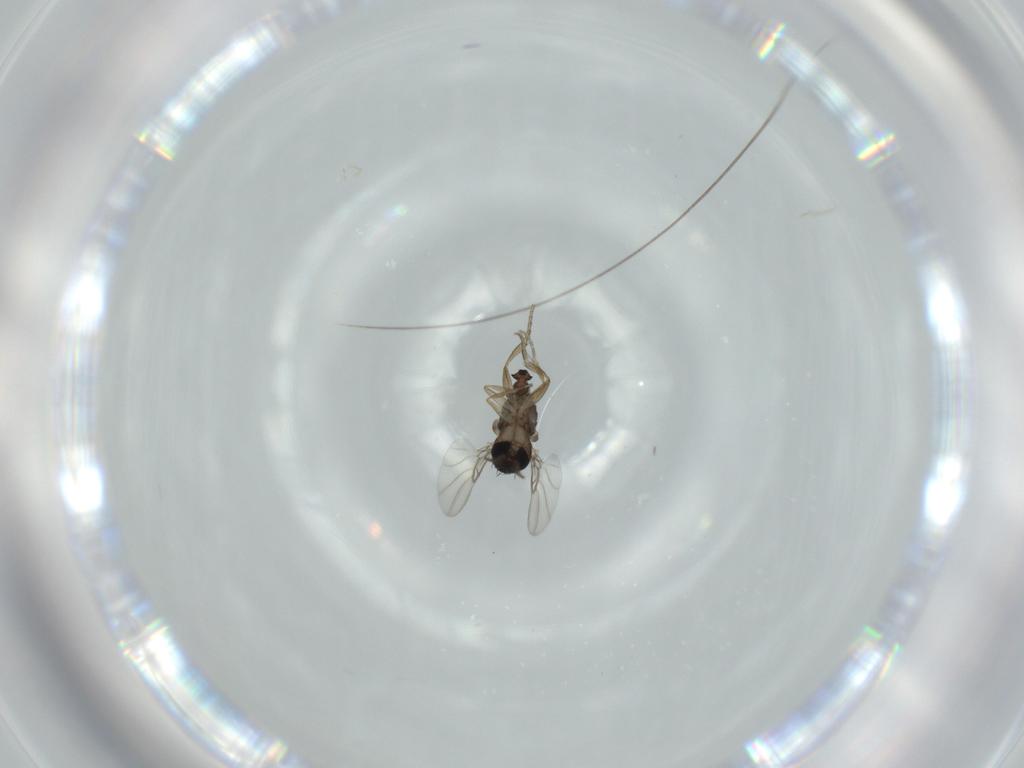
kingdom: Animalia
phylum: Arthropoda
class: Insecta
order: Diptera
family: Phoridae
